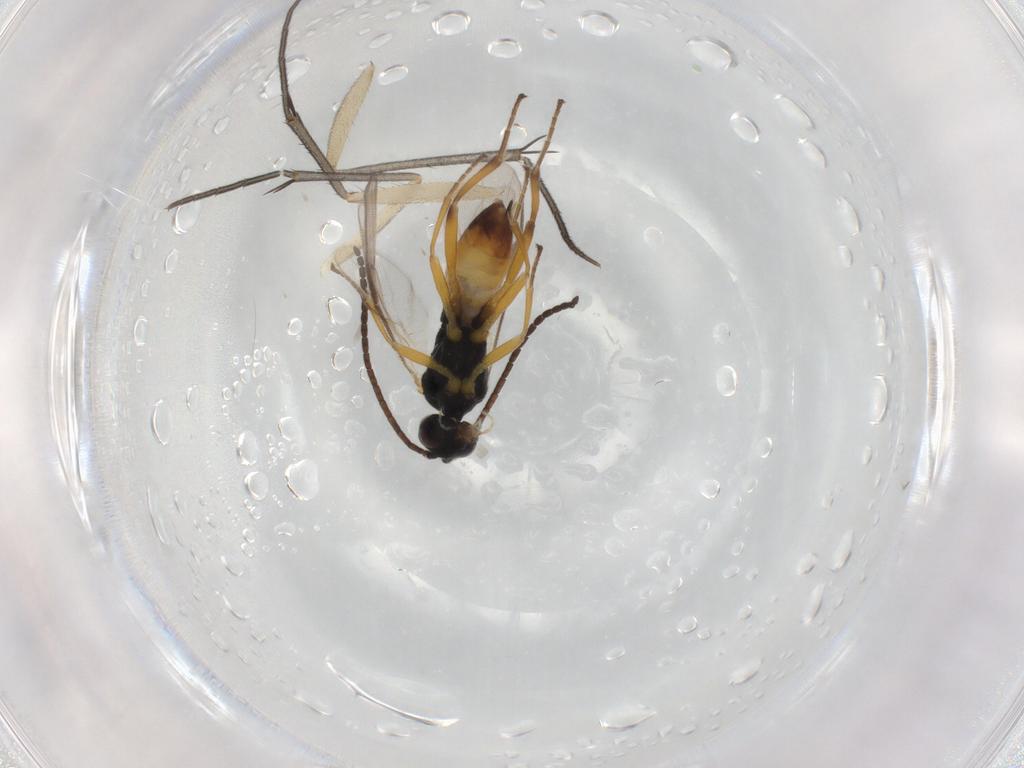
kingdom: Animalia
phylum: Arthropoda
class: Insecta
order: Hymenoptera
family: Braconidae
